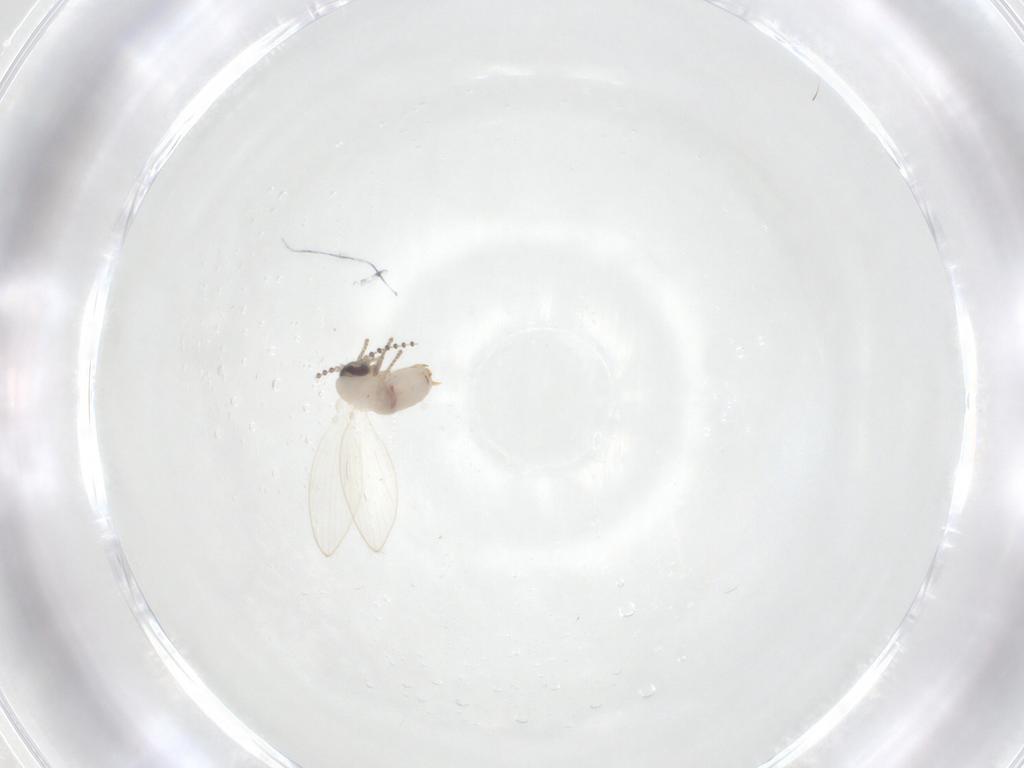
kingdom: Animalia
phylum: Arthropoda
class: Insecta
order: Diptera
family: Psychodidae
